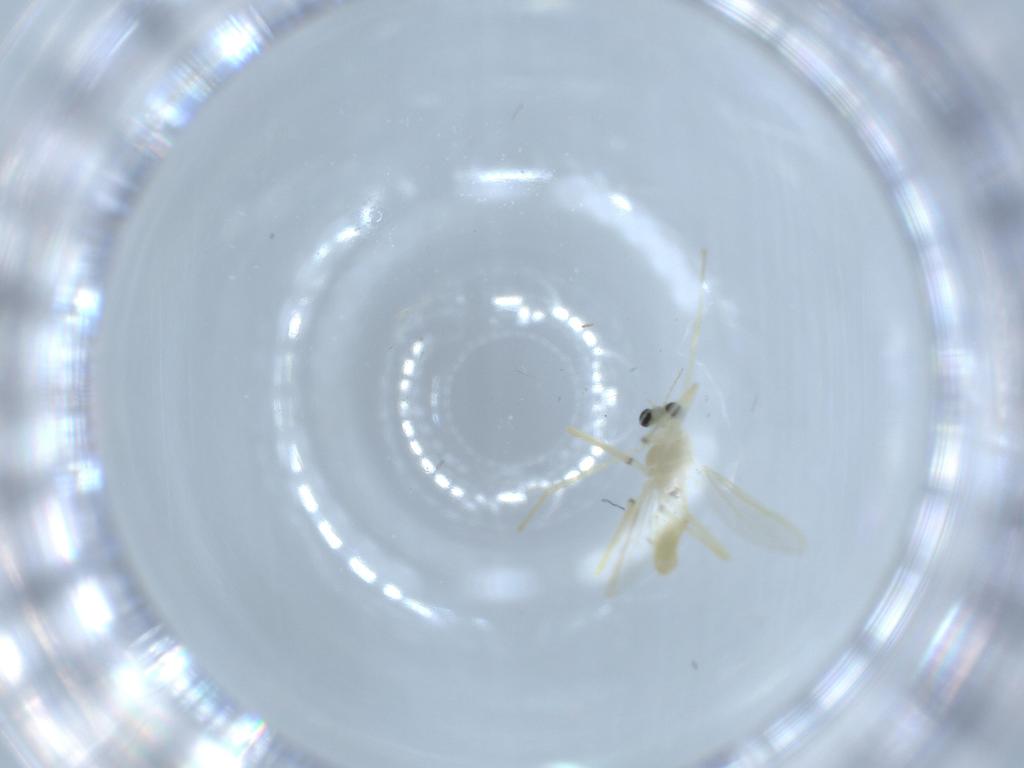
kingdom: Animalia
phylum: Arthropoda
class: Insecta
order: Diptera
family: Chironomidae
